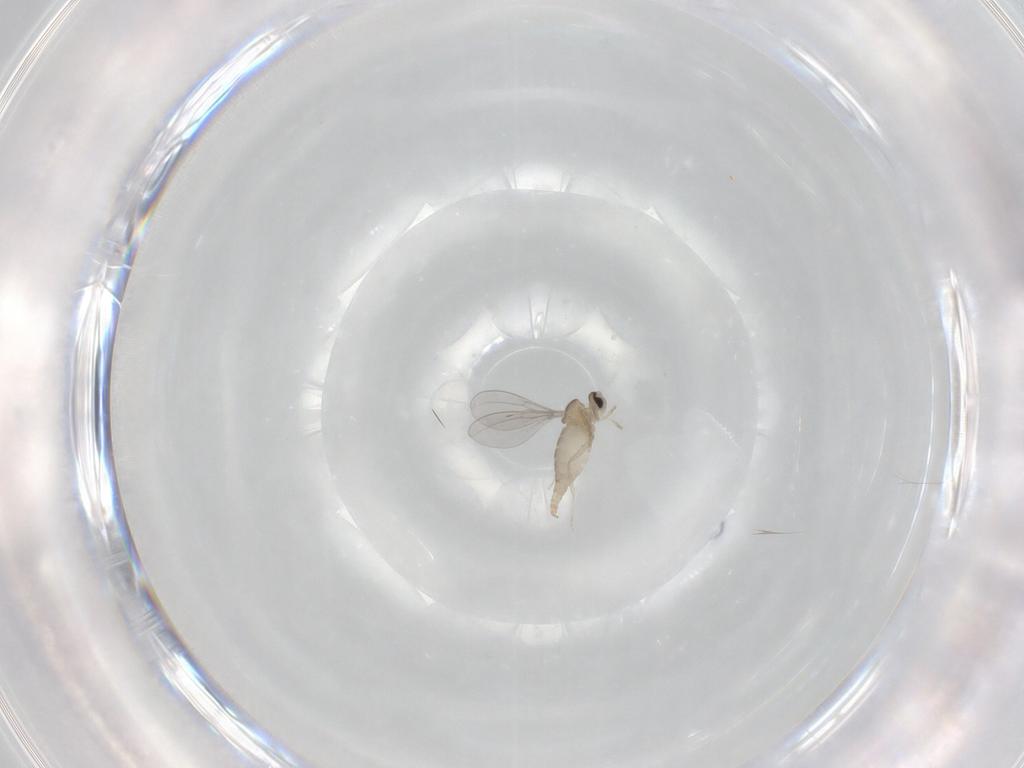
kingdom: Animalia
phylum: Arthropoda
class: Insecta
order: Diptera
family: Cecidomyiidae
